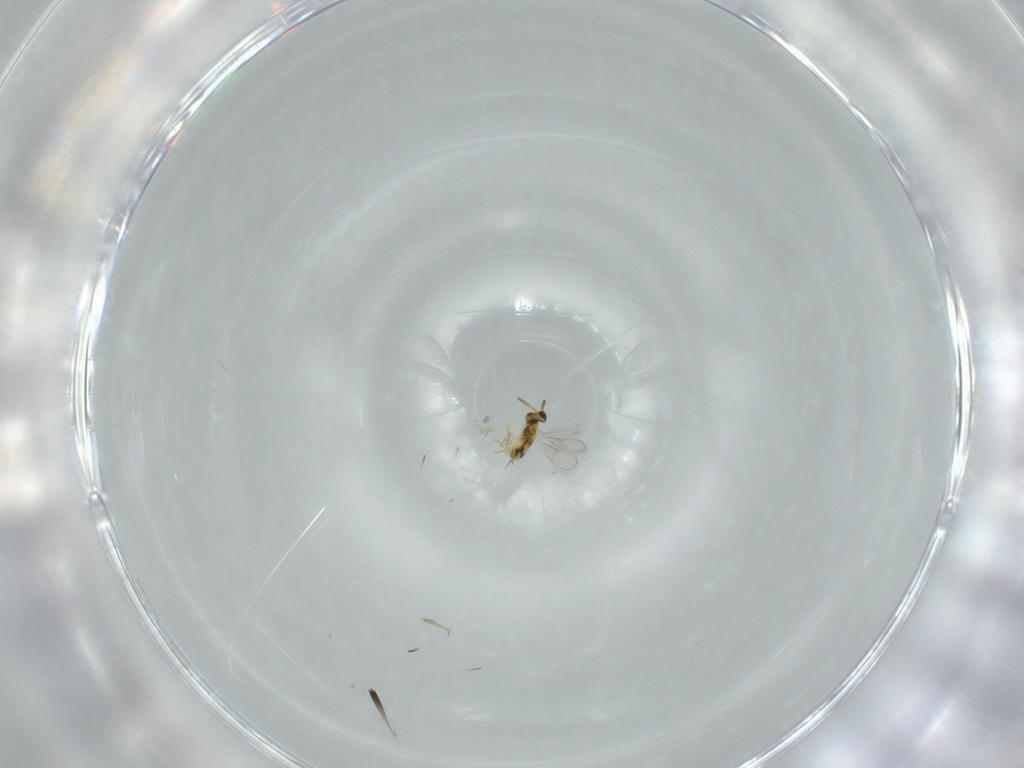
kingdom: Animalia
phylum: Arthropoda
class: Insecta
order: Hymenoptera
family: Aphelinidae
